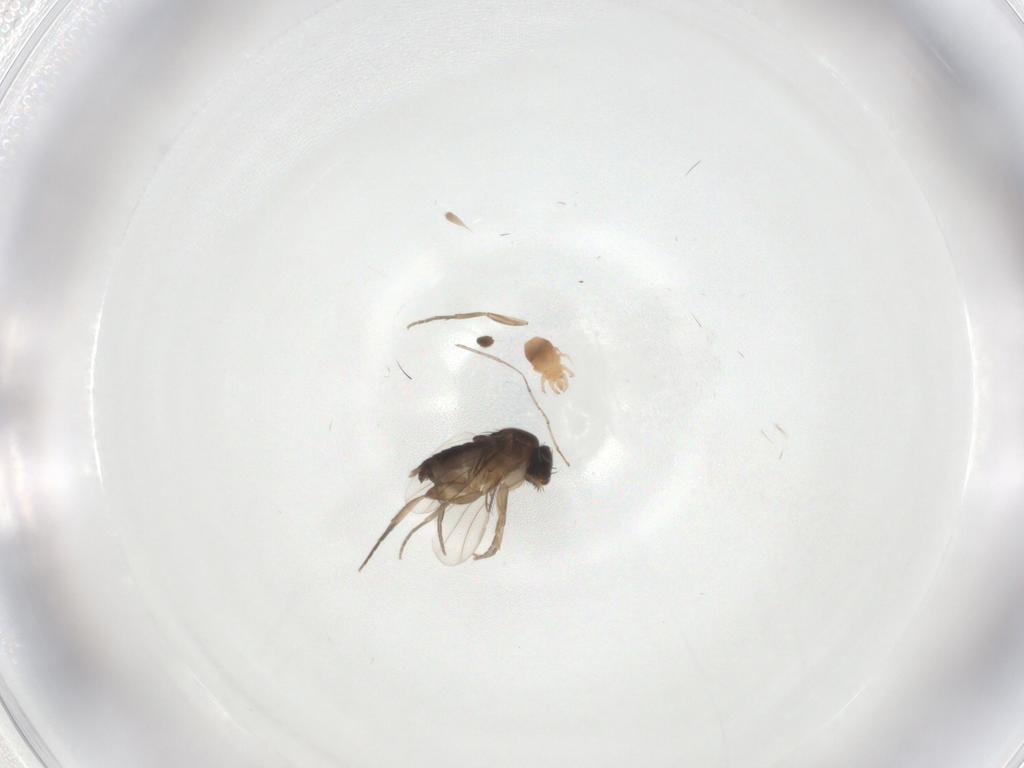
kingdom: Animalia
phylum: Arthropoda
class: Insecta
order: Diptera
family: Cecidomyiidae
